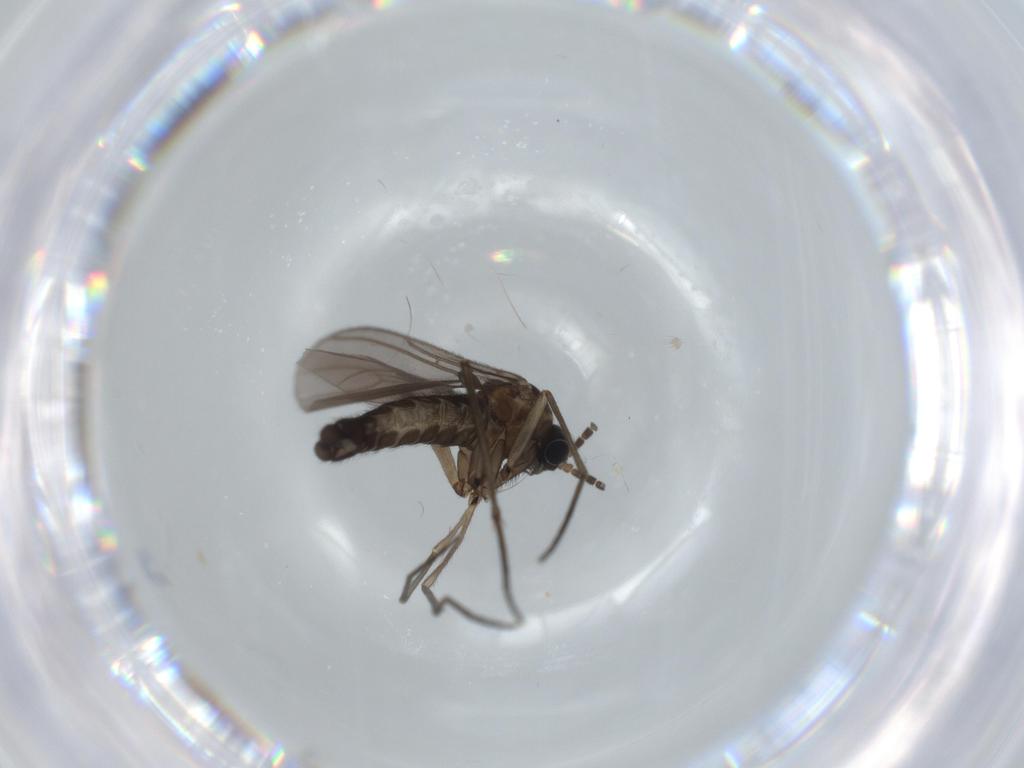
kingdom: Animalia
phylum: Arthropoda
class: Insecta
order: Diptera
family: Sciaridae
